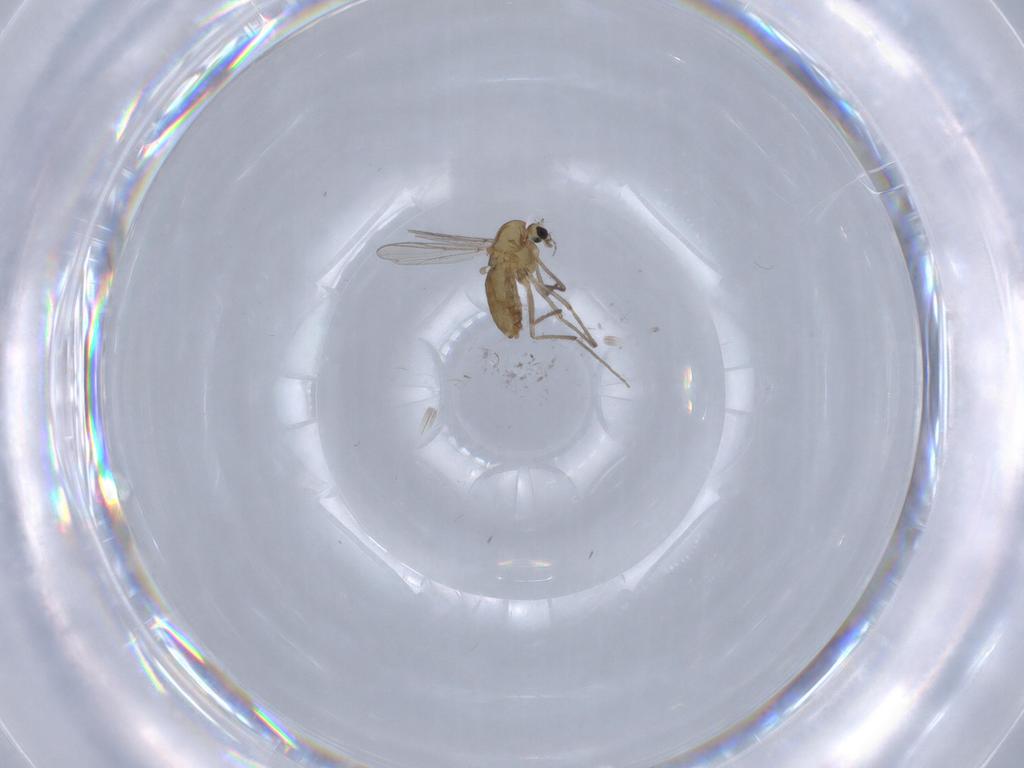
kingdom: Animalia
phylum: Arthropoda
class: Insecta
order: Diptera
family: Chironomidae
